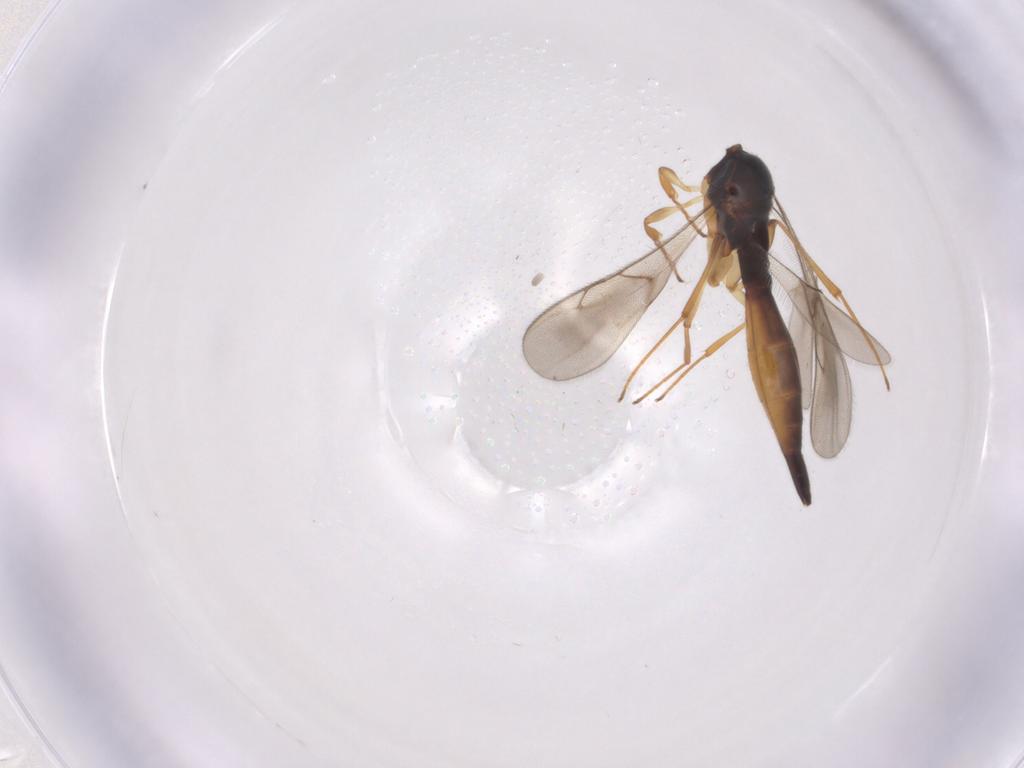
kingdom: Animalia
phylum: Arthropoda
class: Insecta
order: Hymenoptera
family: Scelionidae
